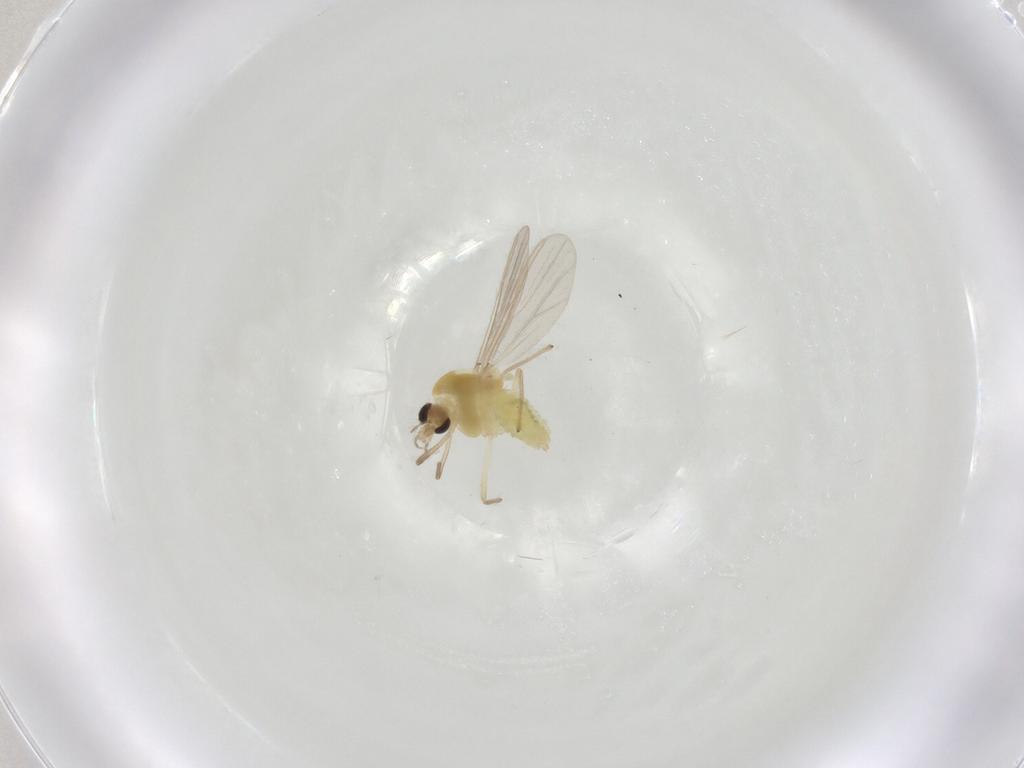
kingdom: Animalia
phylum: Arthropoda
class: Insecta
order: Diptera
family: Chironomidae
